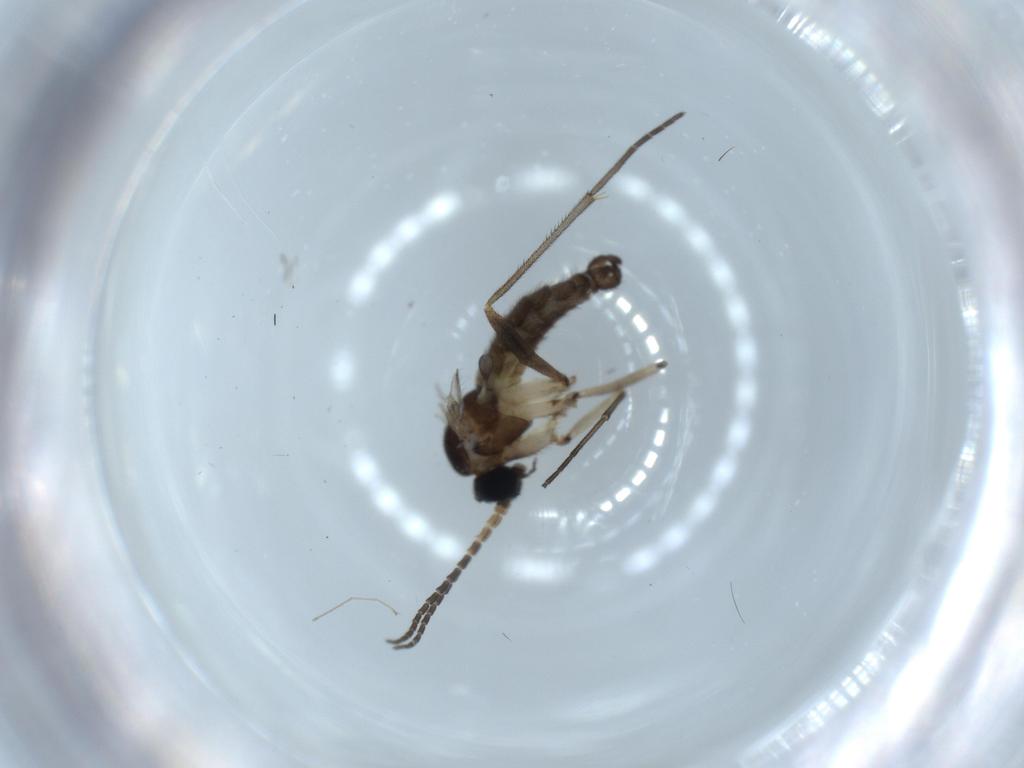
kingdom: Animalia
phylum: Arthropoda
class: Insecta
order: Diptera
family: Sciaridae
